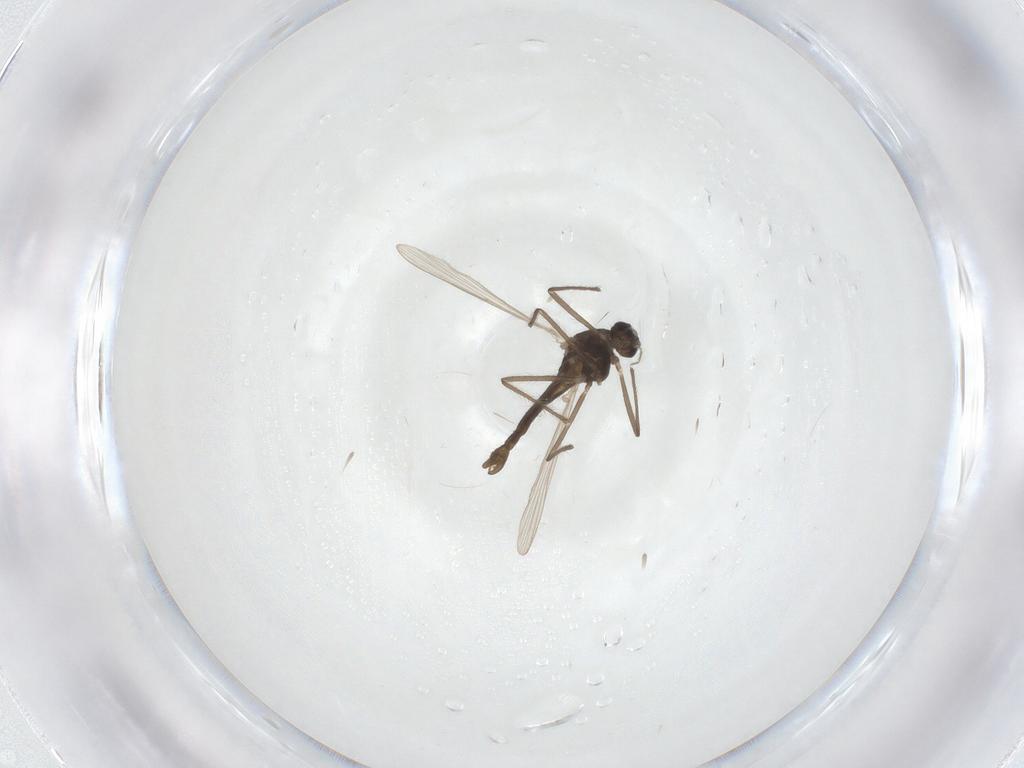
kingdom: Animalia
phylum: Arthropoda
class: Insecta
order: Diptera
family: Chironomidae
